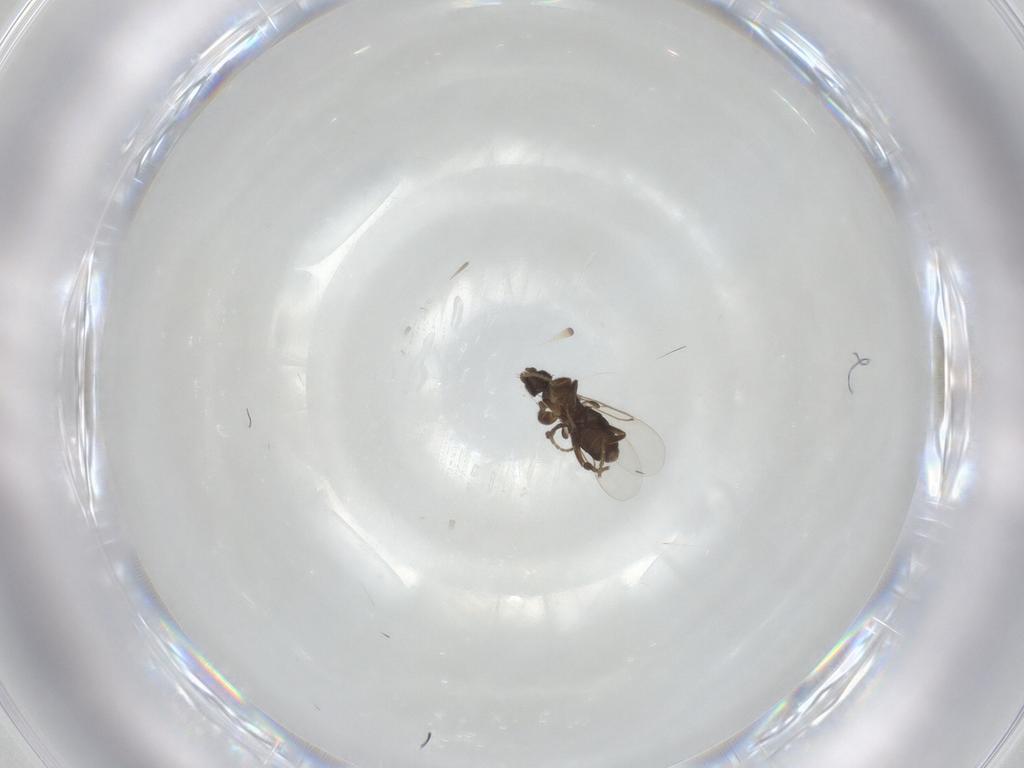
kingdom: Animalia
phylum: Arthropoda
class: Insecta
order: Diptera
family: Phoridae
